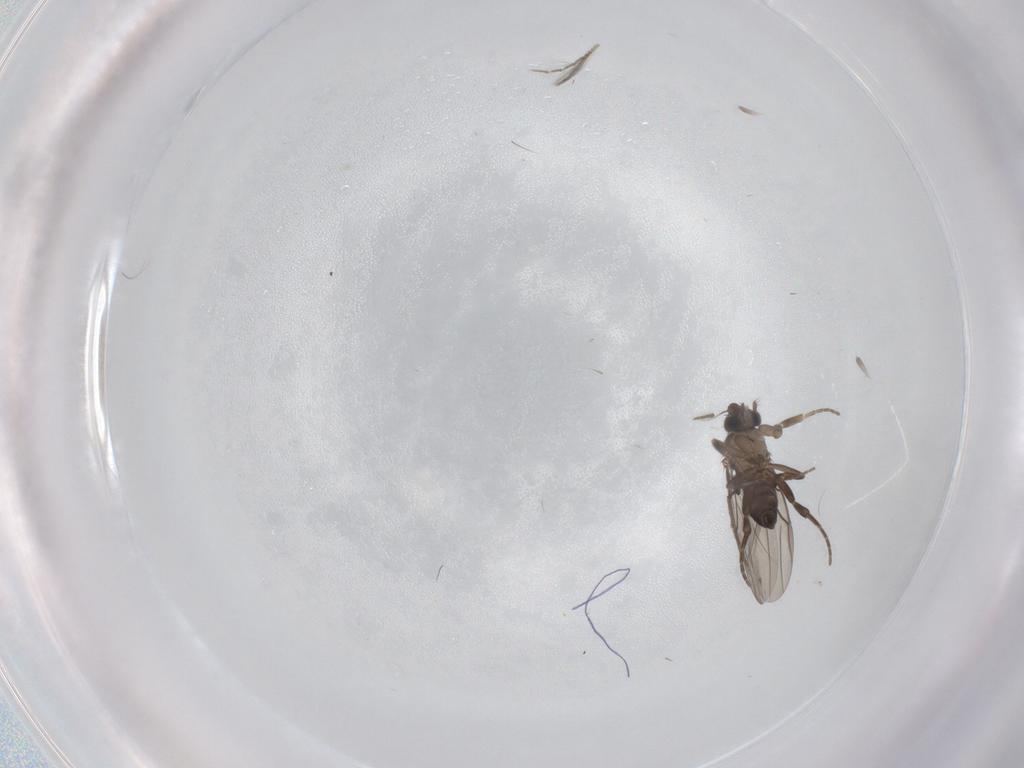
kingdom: Animalia
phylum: Arthropoda
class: Insecta
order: Diptera
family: Chironomidae
